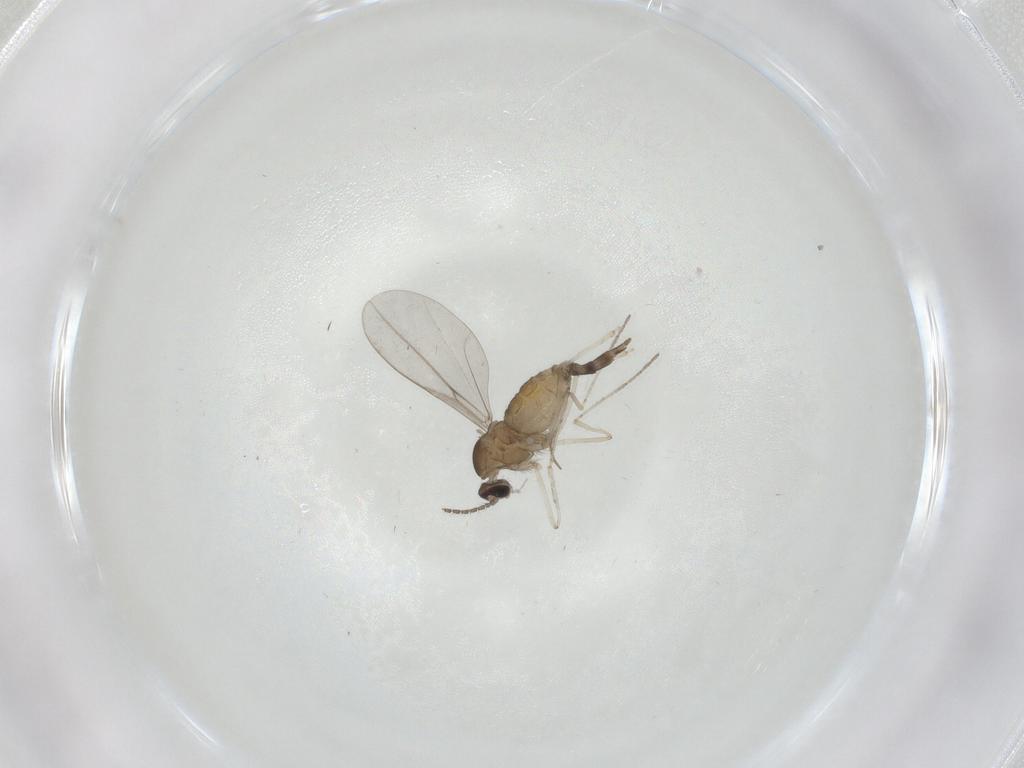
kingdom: Animalia
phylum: Arthropoda
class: Insecta
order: Diptera
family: Cecidomyiidae
